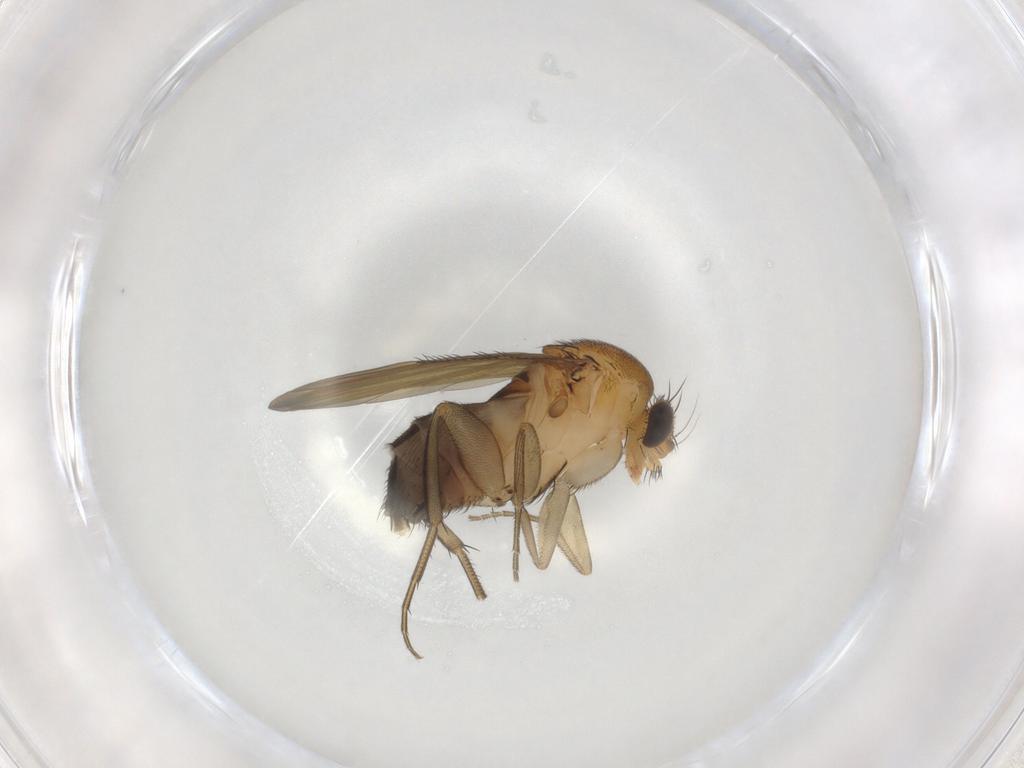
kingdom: Animalia
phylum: Arthropoda
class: Insecta
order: Diptera
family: Phoridae
